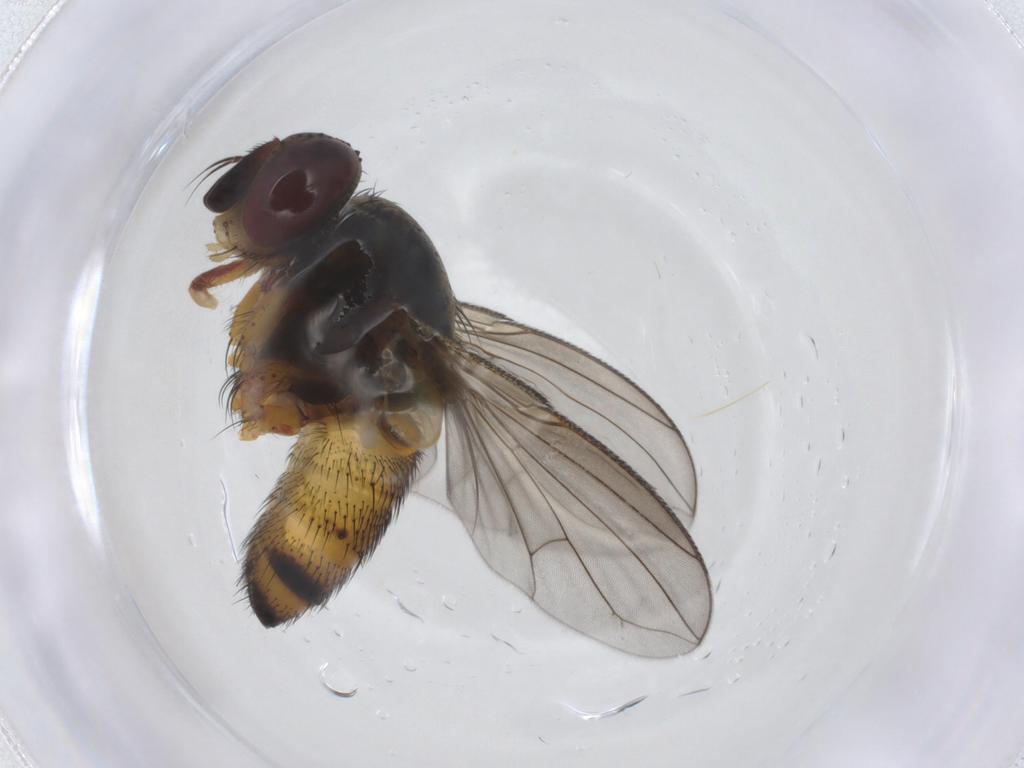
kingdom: Animalia
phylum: Arthropoda
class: Insecta
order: Diptera
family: Tachinidae
